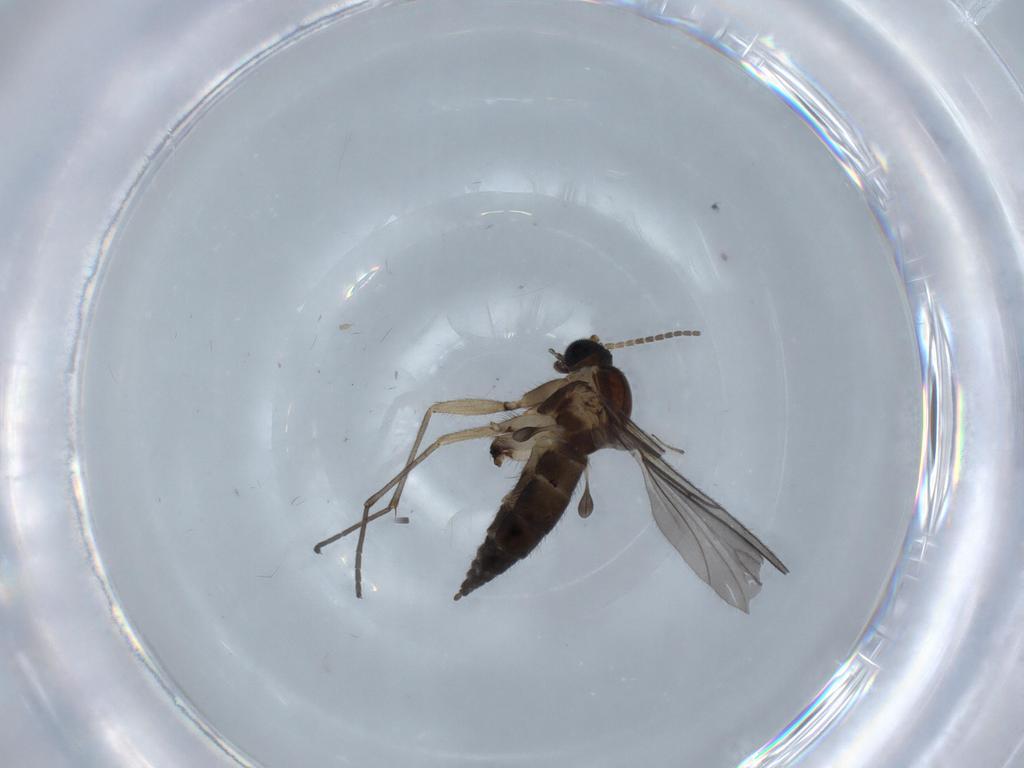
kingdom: Animalia
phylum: Arthropoda
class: Insecta
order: Diptera
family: Sciaridae
